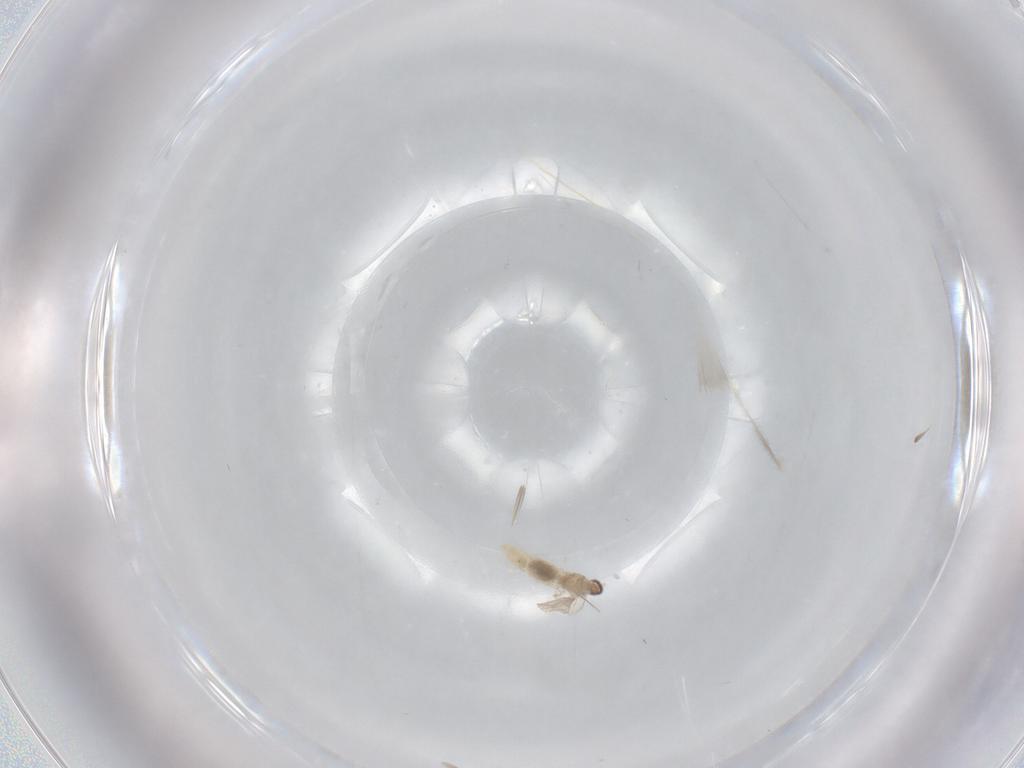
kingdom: Animalia
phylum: Arthropoda
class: Insecta
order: Diptera
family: Cecidomyiidae
